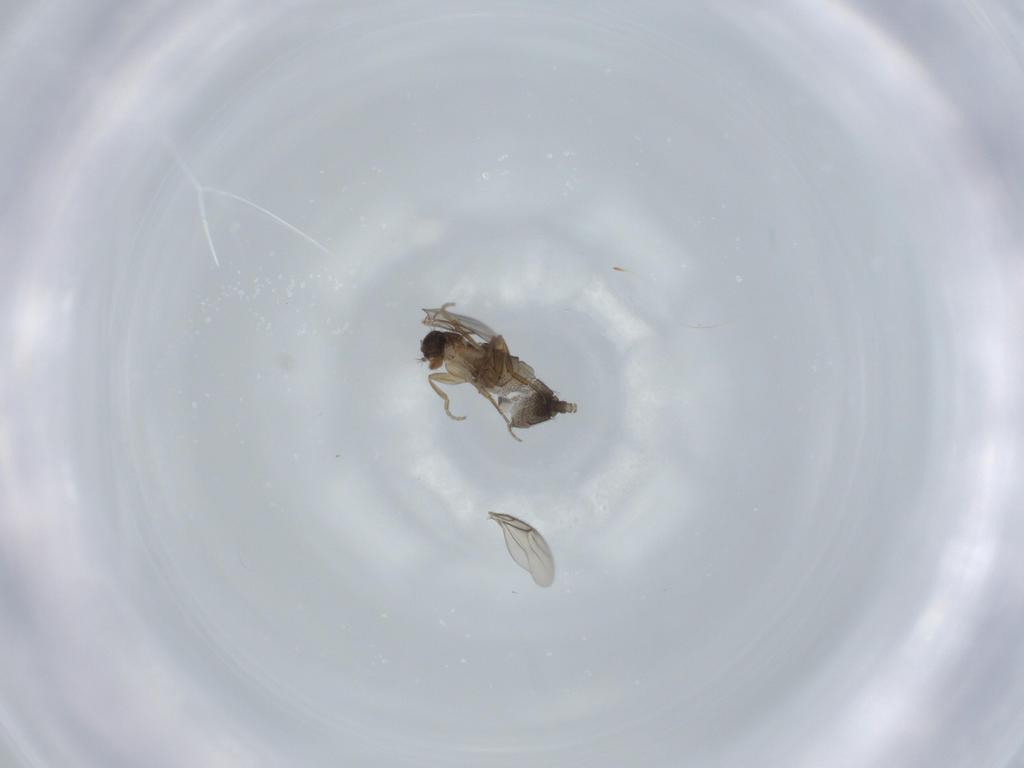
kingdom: Animalia
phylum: Arthropoda
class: Insecta
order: Diptera
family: Phoridae
